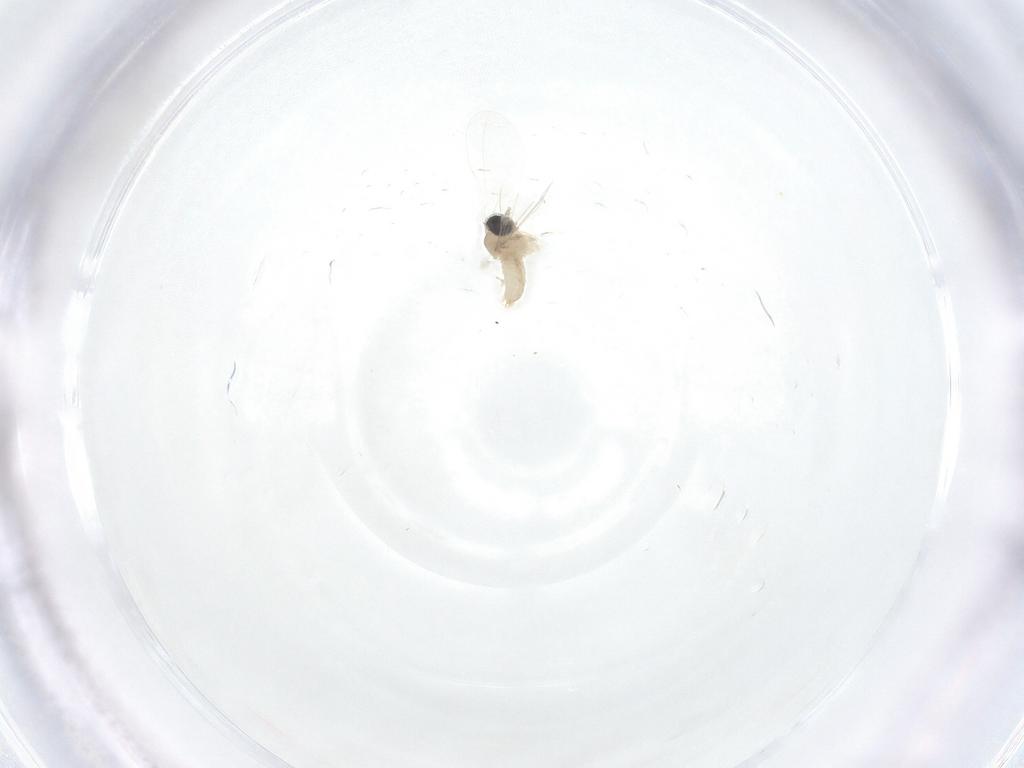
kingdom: Animalia
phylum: Arthropoda
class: Insecta
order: Diptera
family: Cecidomyiidae
